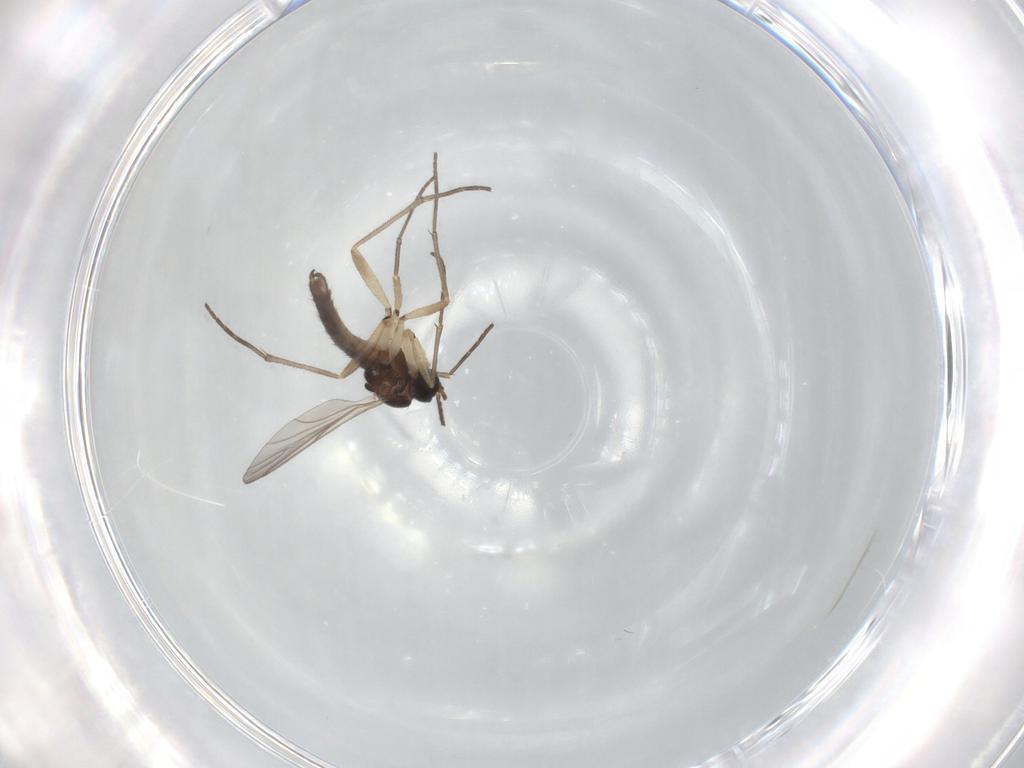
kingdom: Animalia
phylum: Arthropoda
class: Insecta
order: Diptera
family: Sciaridae
